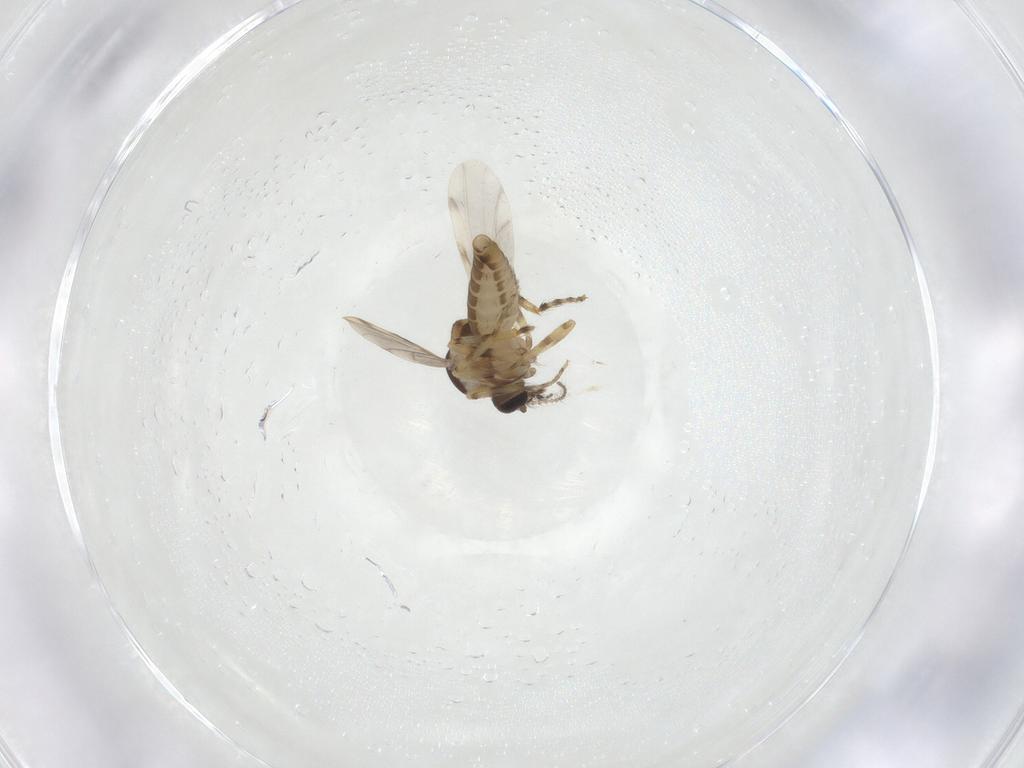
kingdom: Animalia
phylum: Arthropoda
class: Insecta
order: Diptera
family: Ceratopogonidae
